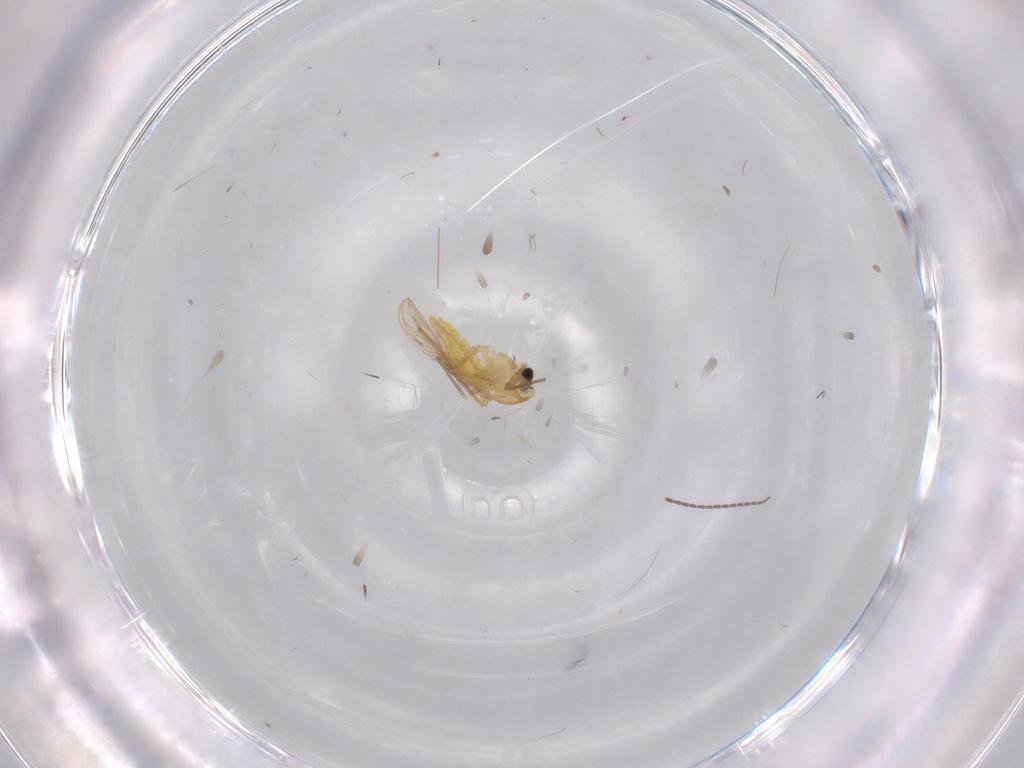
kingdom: Animalia
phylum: Arthropoda
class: Insecta
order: Diptera
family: Sciaridae
